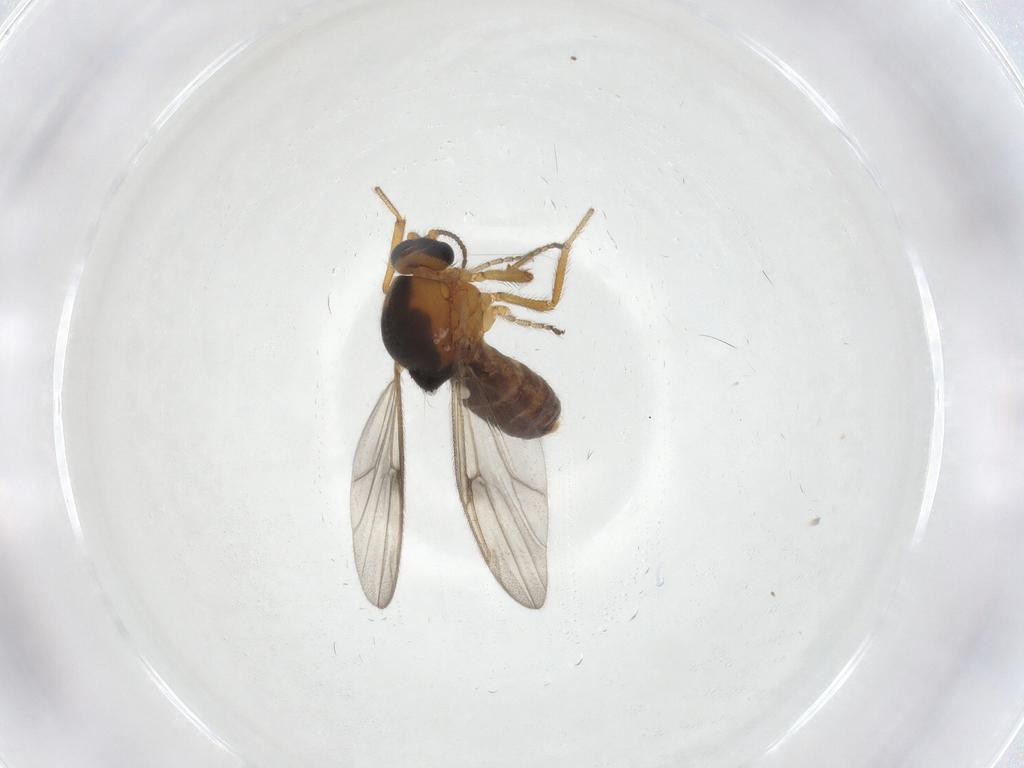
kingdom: Animalia
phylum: Arthropoda
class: Insecta
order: Diptera
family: Ceratopogonidae
